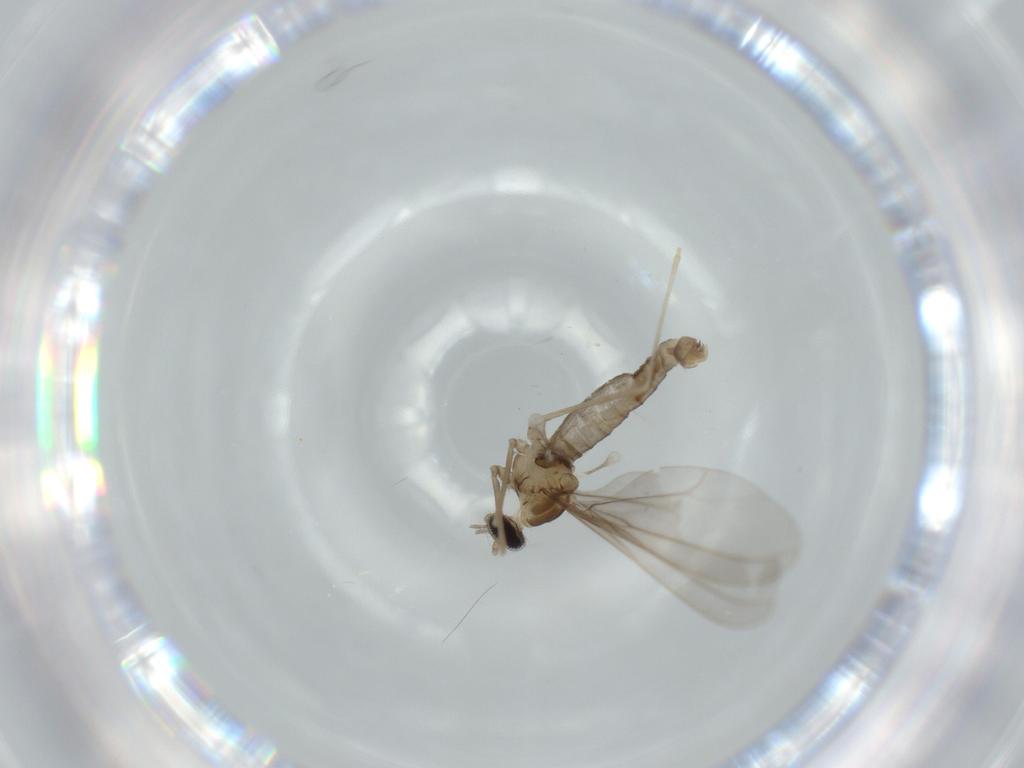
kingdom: Animalia
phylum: Arthropoda
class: Insecta
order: Diptera
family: Cecidomyiidae
